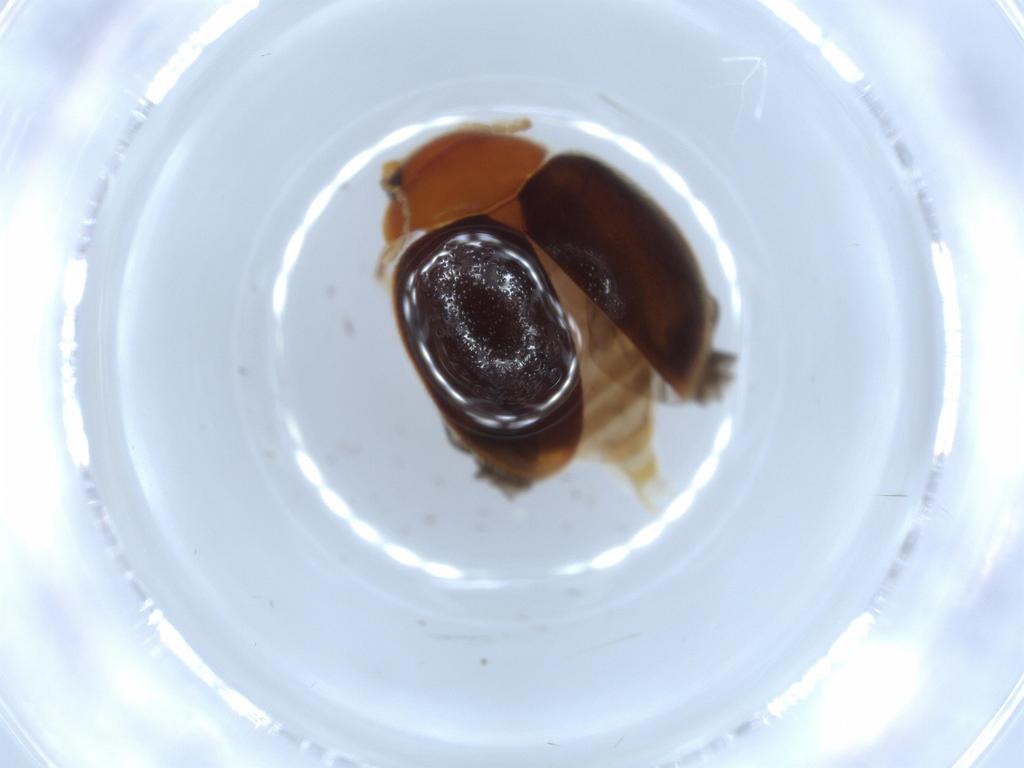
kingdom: Animalia
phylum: Arthropoda
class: Insecta
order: Coleoptera
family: Scirtidae
